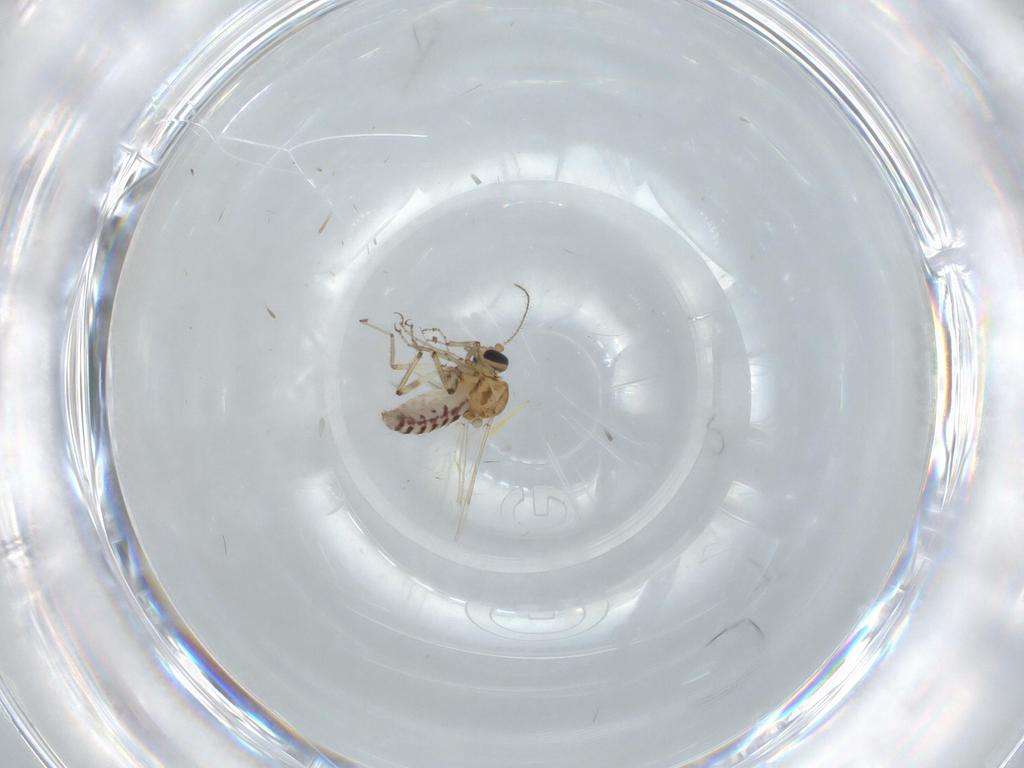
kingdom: Animalia
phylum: Arthropoda
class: Insecta
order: Diptera
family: Ceratopogonidae
